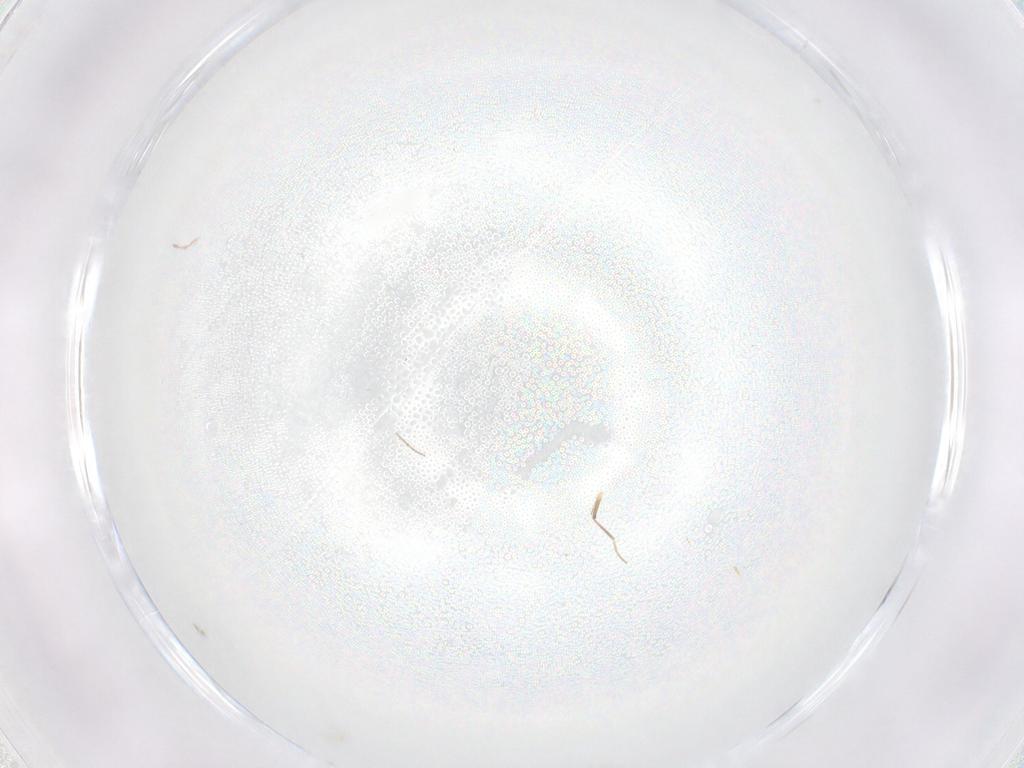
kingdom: Animalia
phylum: Arthropoda
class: Insecta
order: Diptera
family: Cecidomyiidae
